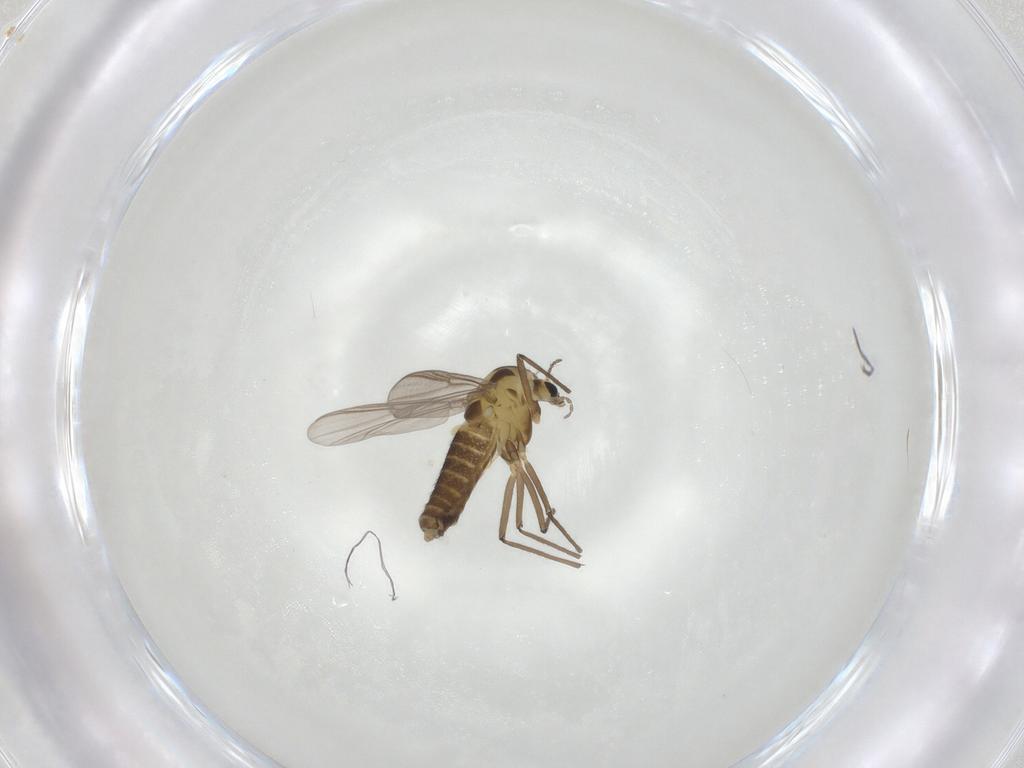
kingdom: Animalia
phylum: Arthropoda
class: Insecta
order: Diptera
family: Chironomidae
